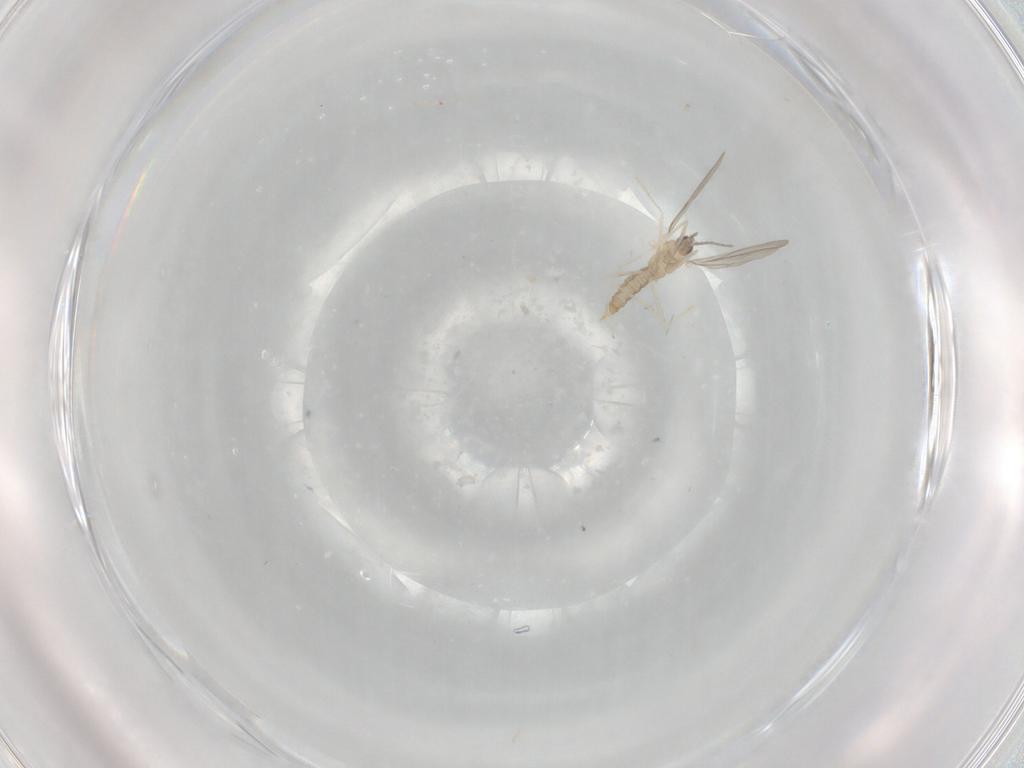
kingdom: Animalia
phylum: Arthropoda
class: Insecta
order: Diptera
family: Cecidomyiidae
